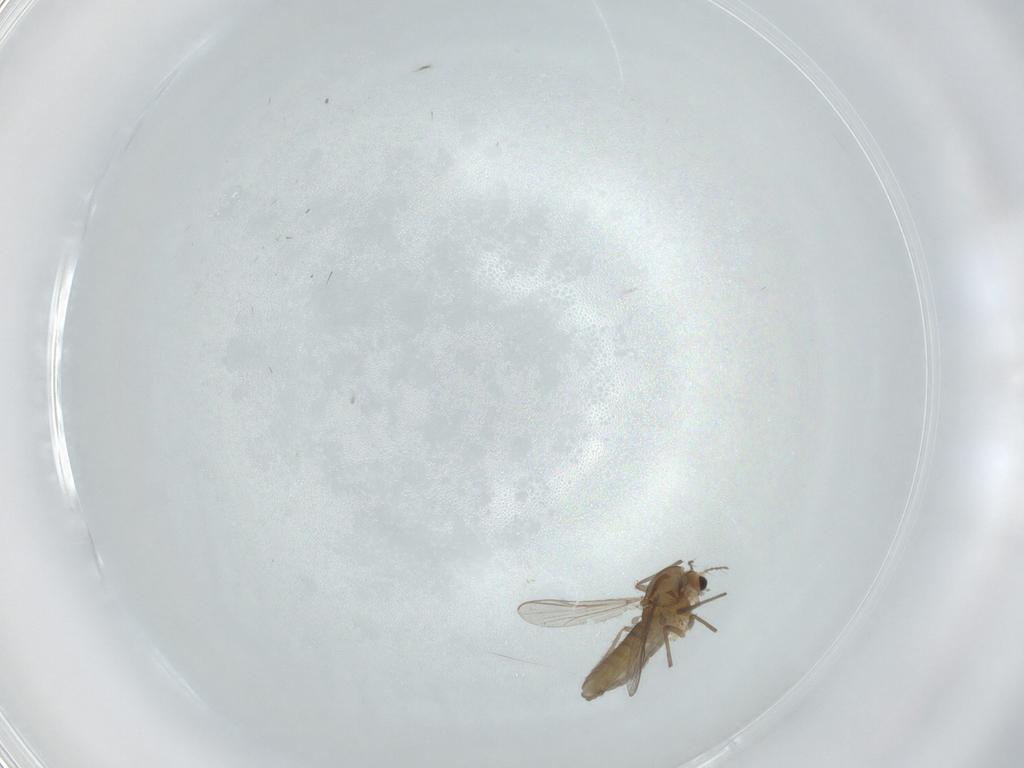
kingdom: Animalia
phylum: Arthropoda
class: Insecta
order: Diptera
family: Chironomidae
